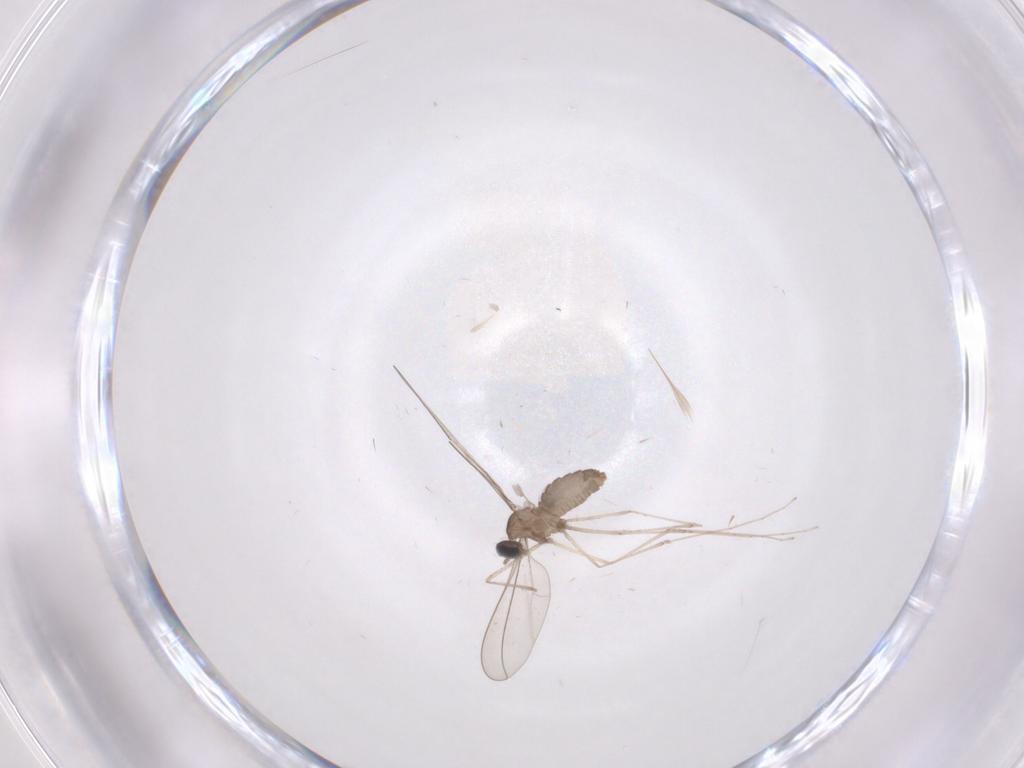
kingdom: Animalia
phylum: Arthropoda
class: Insecta
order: Diptera
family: Cecidomyiidae
